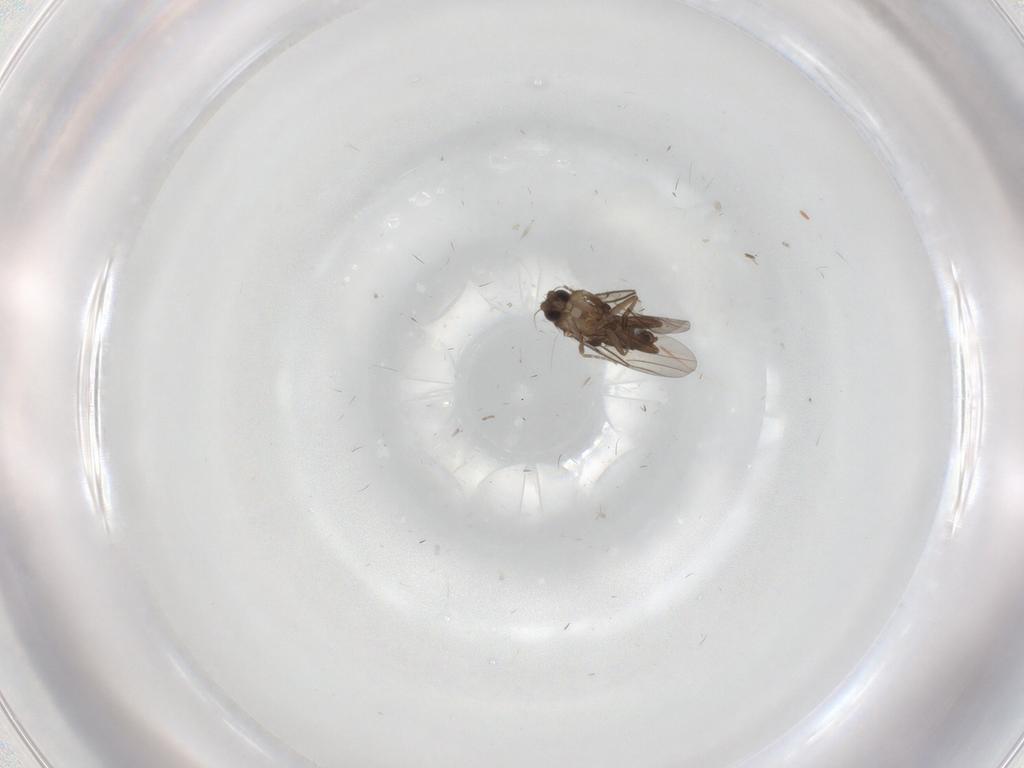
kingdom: Animalia
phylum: Arthropoda
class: Insecta
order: Diptera
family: Phoridae
